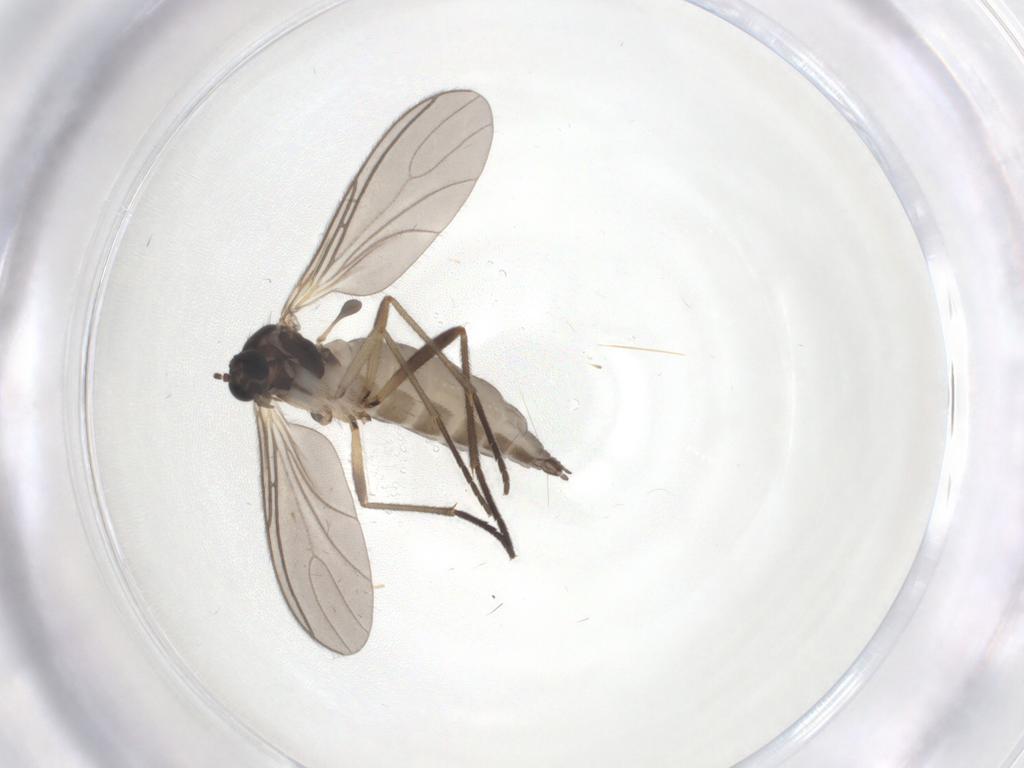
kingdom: Animalia
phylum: Arthropoda
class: Insecta
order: Diptera
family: Sciaridae
